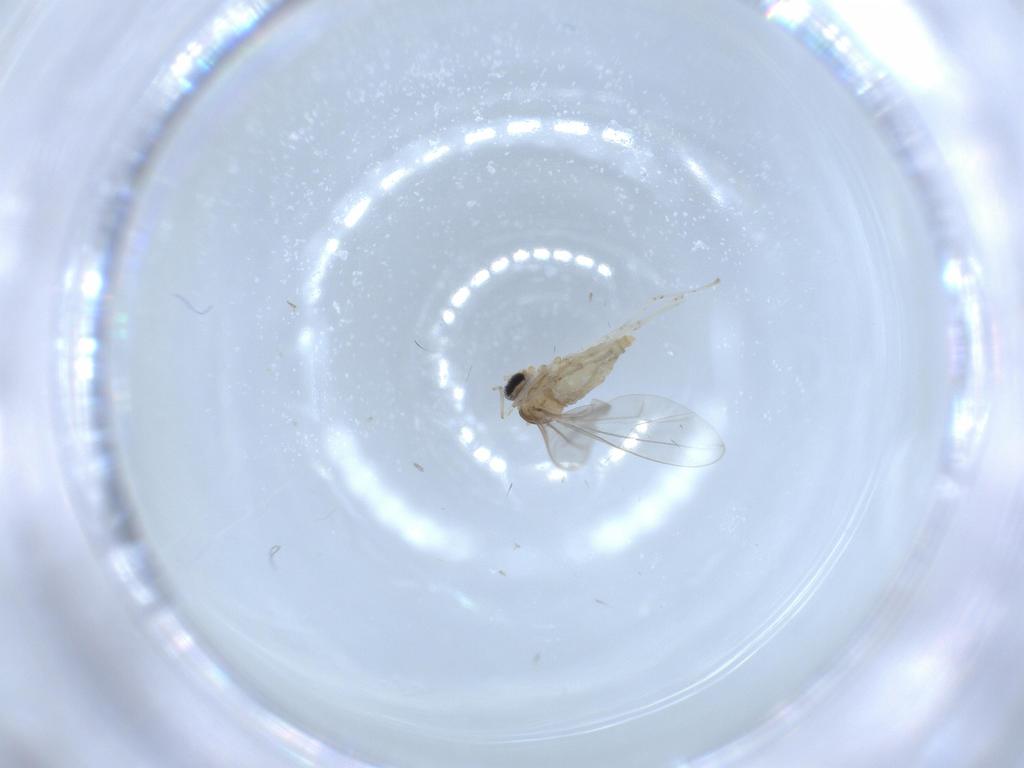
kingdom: Animalia
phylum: Arthropoda
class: Insecta
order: Diptera
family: Cecidomyiidae
